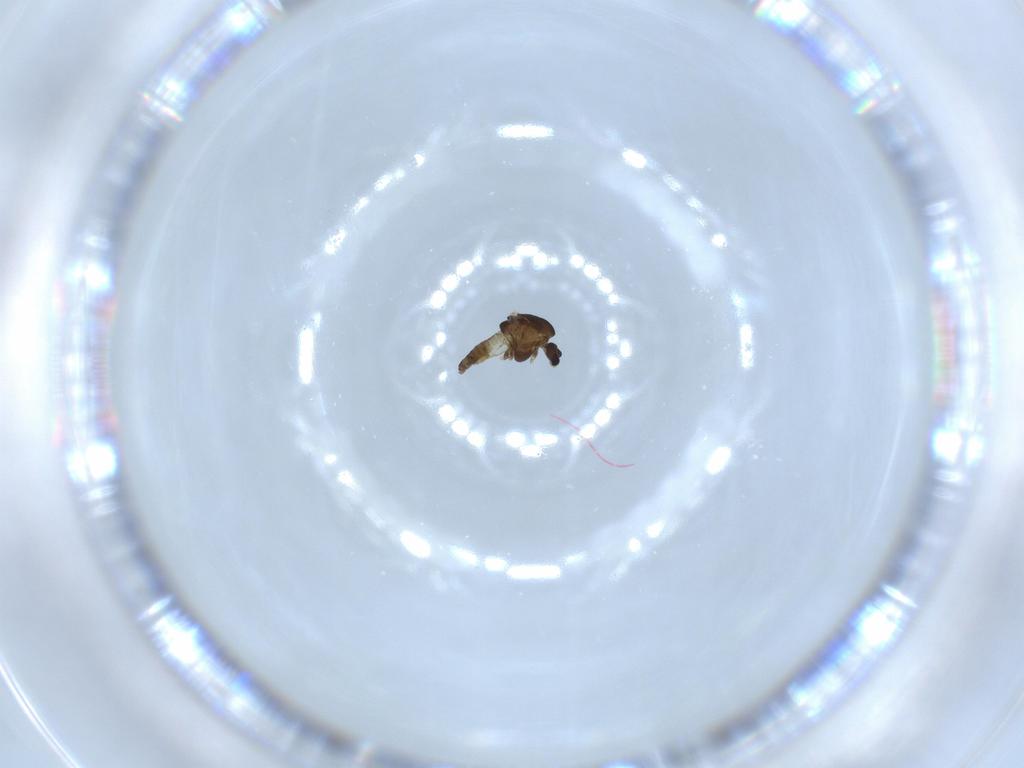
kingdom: Animalia
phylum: Arthropoda
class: Insecta
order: Diptera
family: Chironomidae
